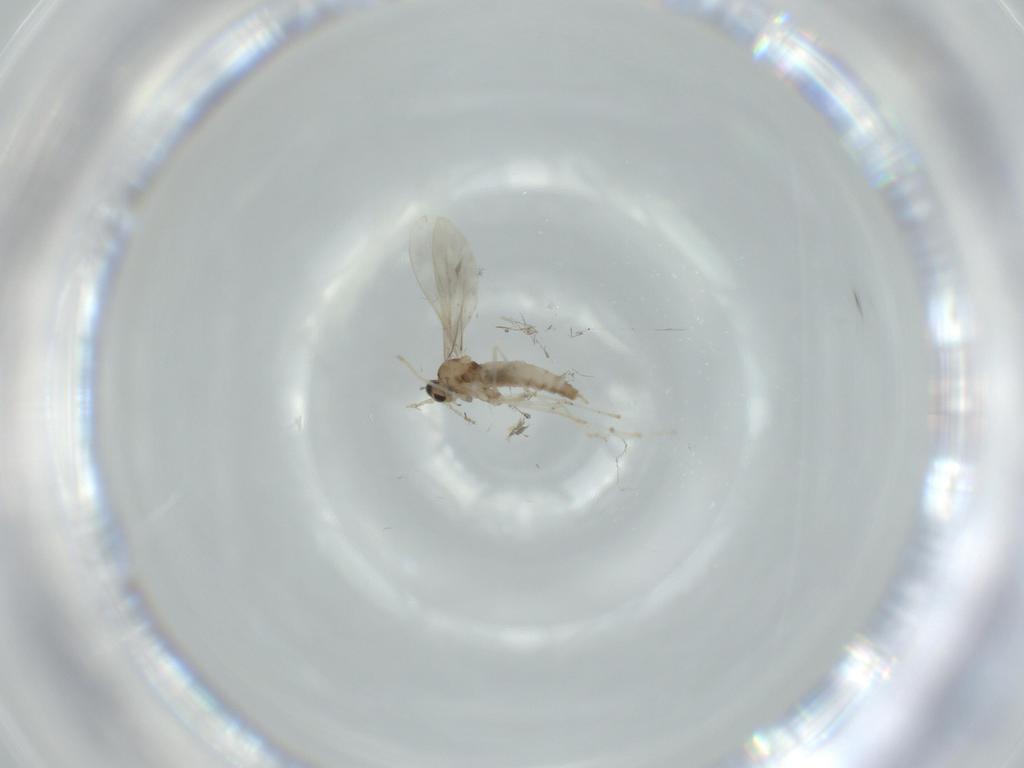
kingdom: Animalia
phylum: Arthropoda
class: Insecta
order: Diptera
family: Cecidomyiidae
